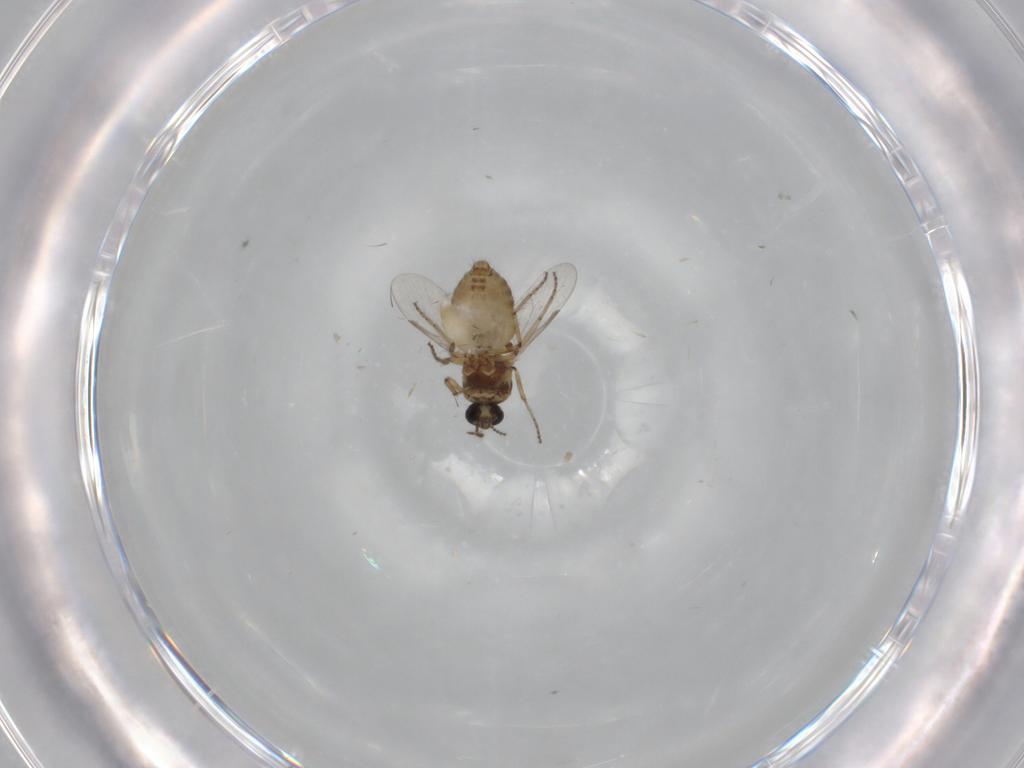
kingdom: Animalia
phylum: Arthropoda
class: Insecta
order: Diptera
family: Ceratopogonidae
